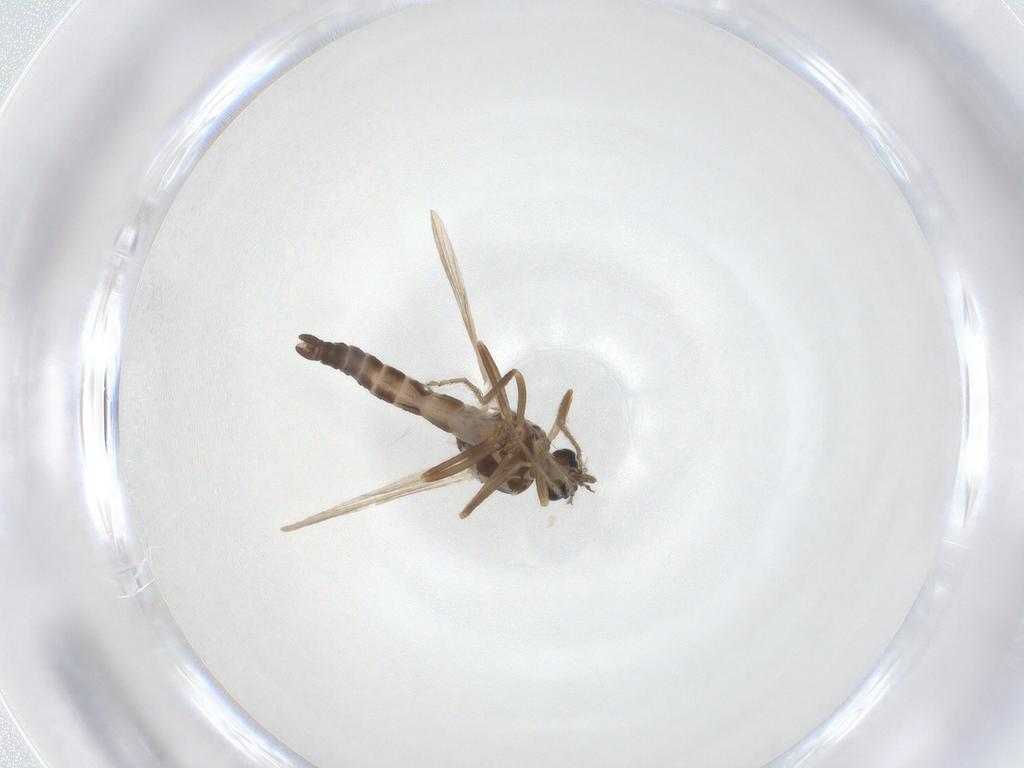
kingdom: Animalia
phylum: Arthropoda
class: Insecta
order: Diptera
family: Ceratopogonidae
